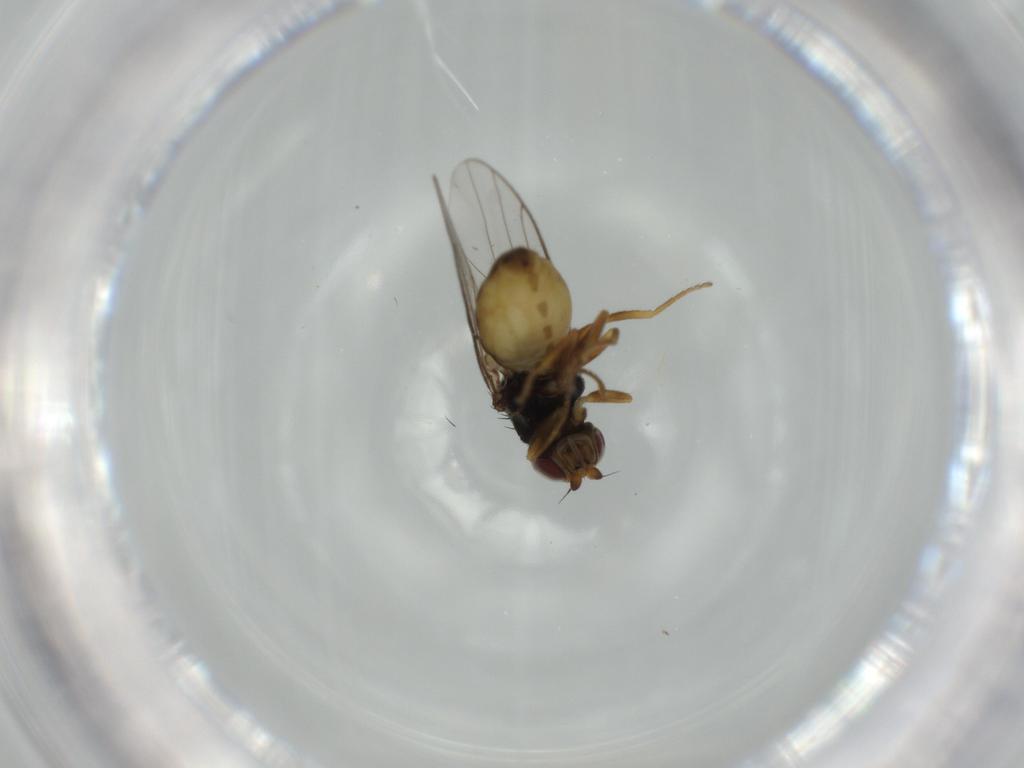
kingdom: Animalia
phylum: Arthropoda
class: Insecta
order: Diptera
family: Chloropidae
